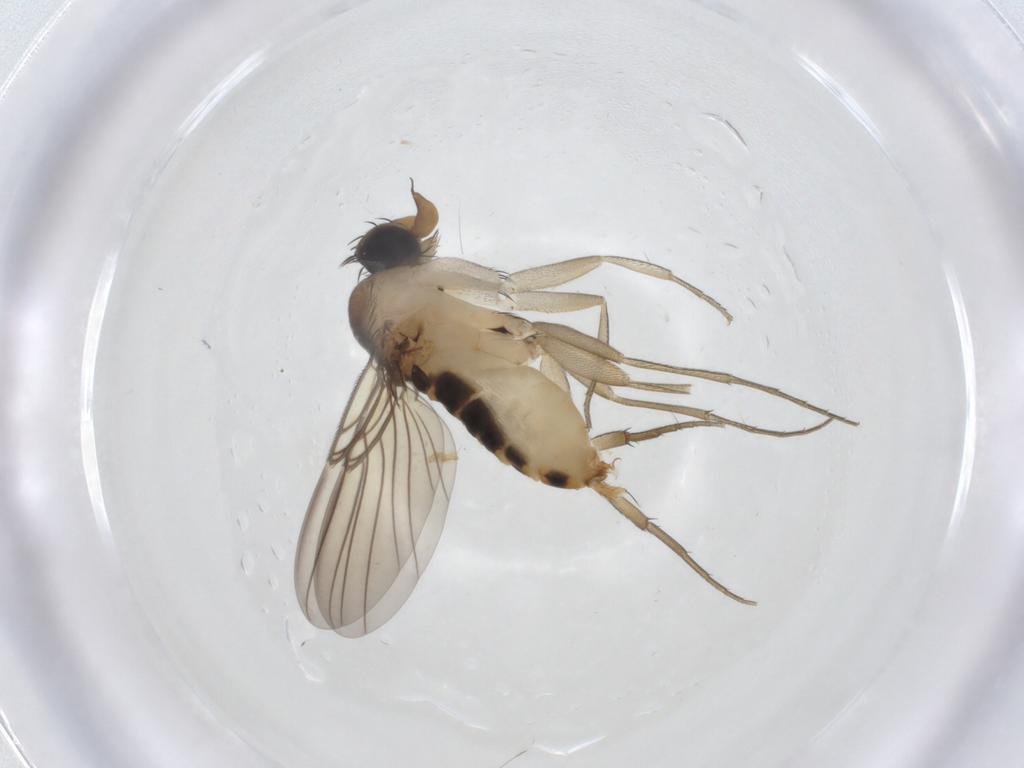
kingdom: Animalia
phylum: Arthropoda
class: Insecta
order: Diptera
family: Phoridae
